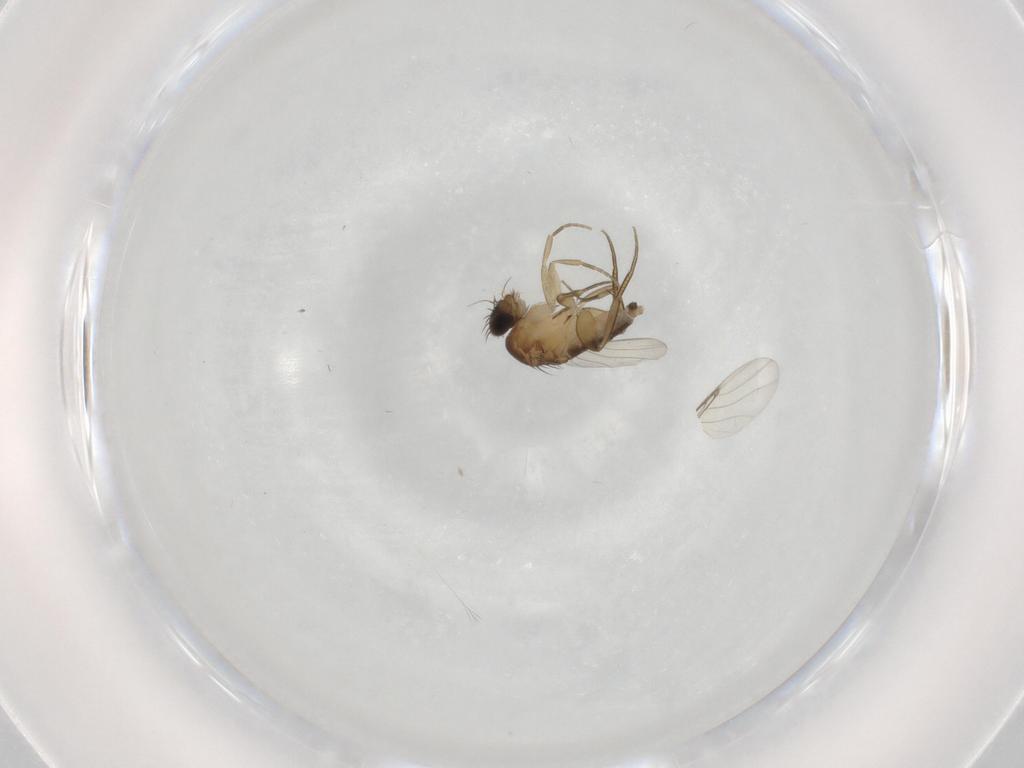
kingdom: Animalia
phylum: Arthropoda
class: Insecta
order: Diptera
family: Phoridae
